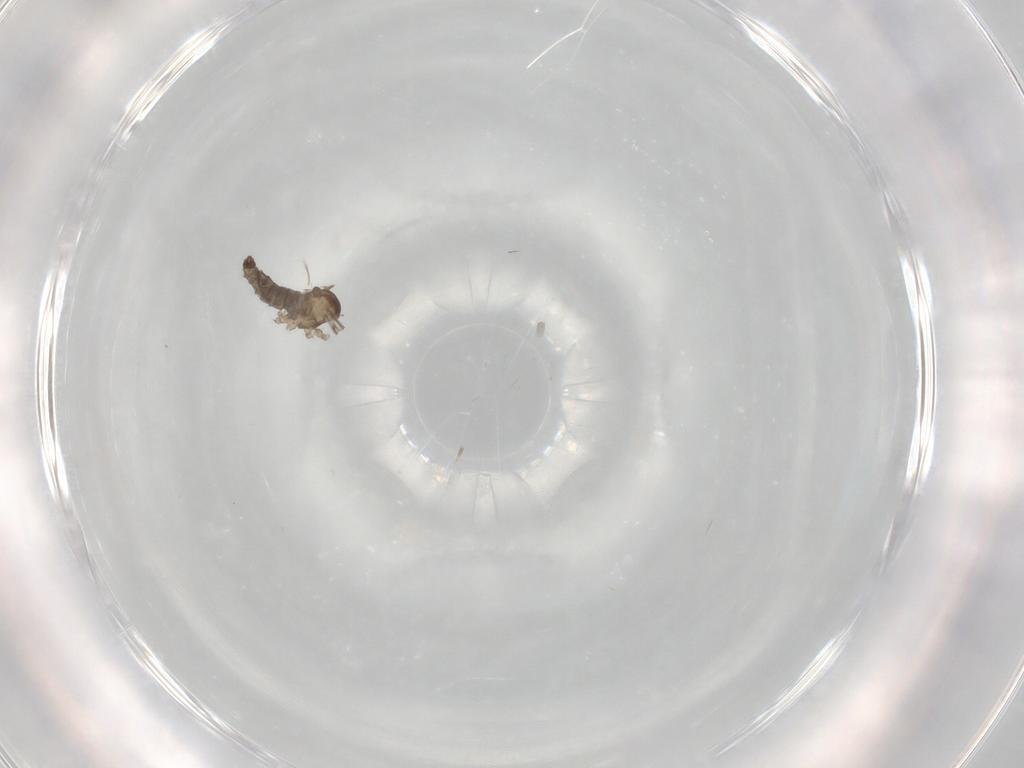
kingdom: Animalia
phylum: Arthropoda
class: Insecta
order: Diptera
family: Cecidomyiidae
